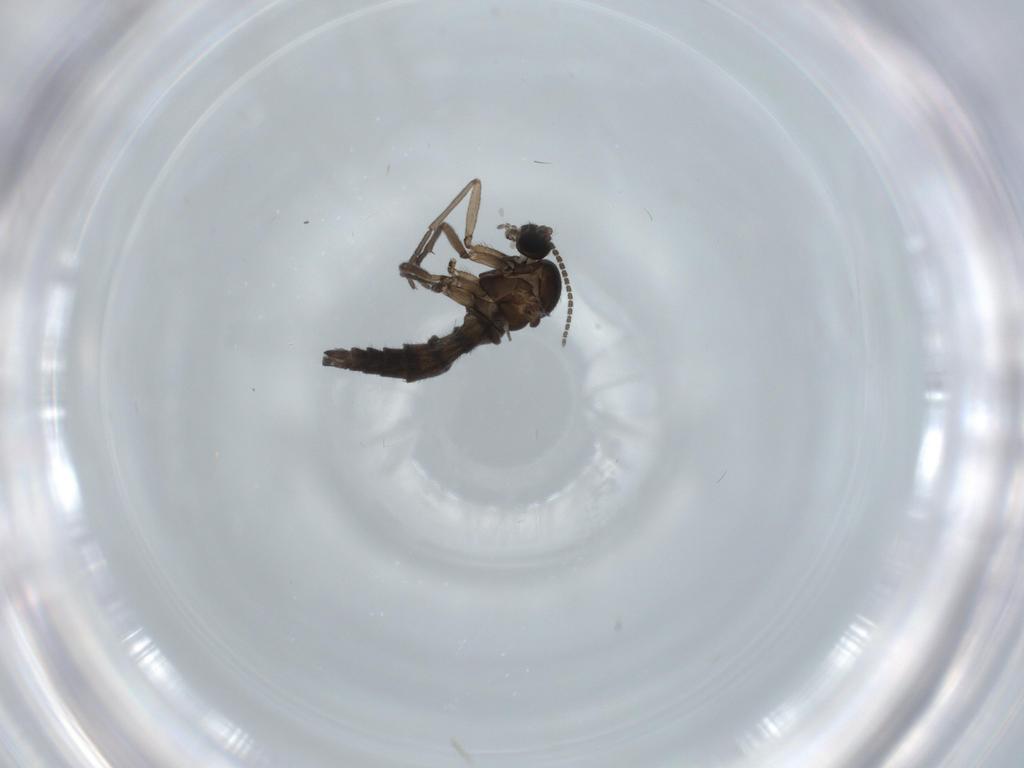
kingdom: Animalia
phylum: Arthropoda
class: Insecta
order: Diptera
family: Sciaridae
